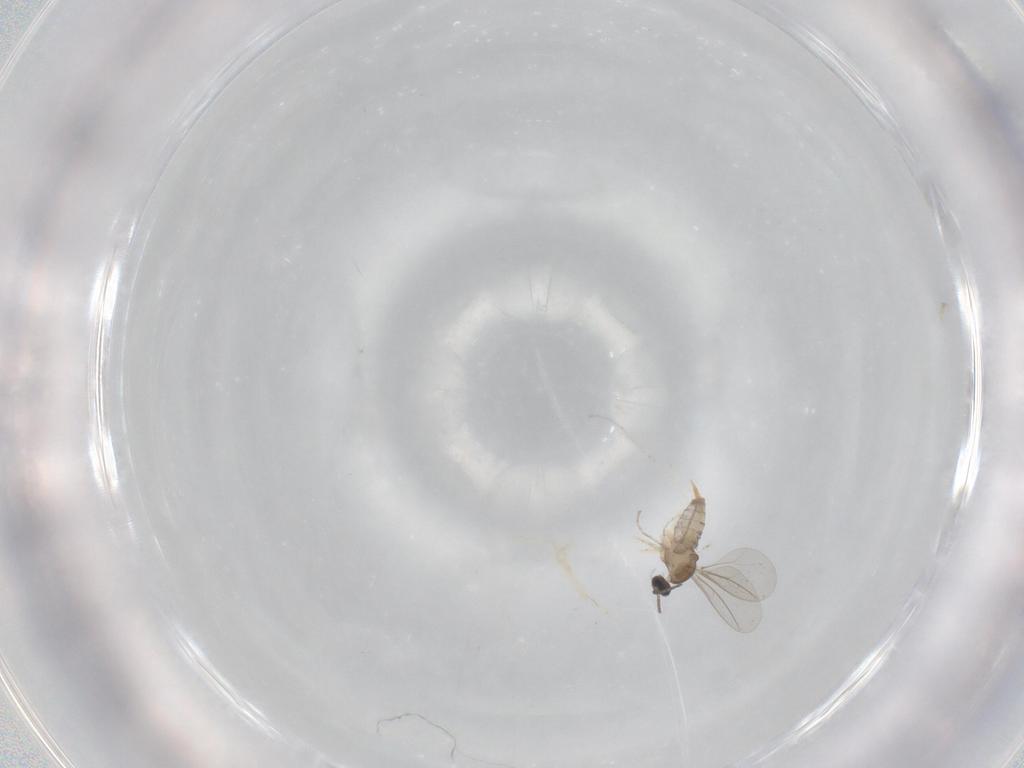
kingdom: Animalia
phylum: Arthropoda
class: Insecta
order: Diptera
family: Cecidomyiidae
